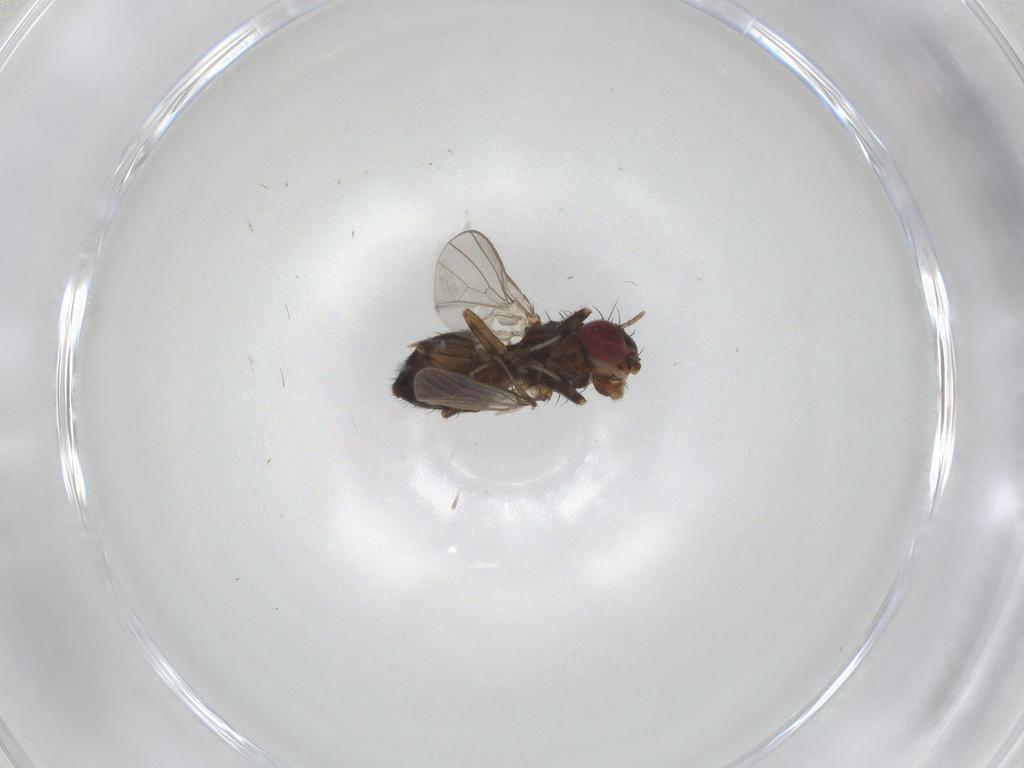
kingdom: Animalia
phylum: Arthropoda
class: Insecta
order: Diptera
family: Heleomyzidae
